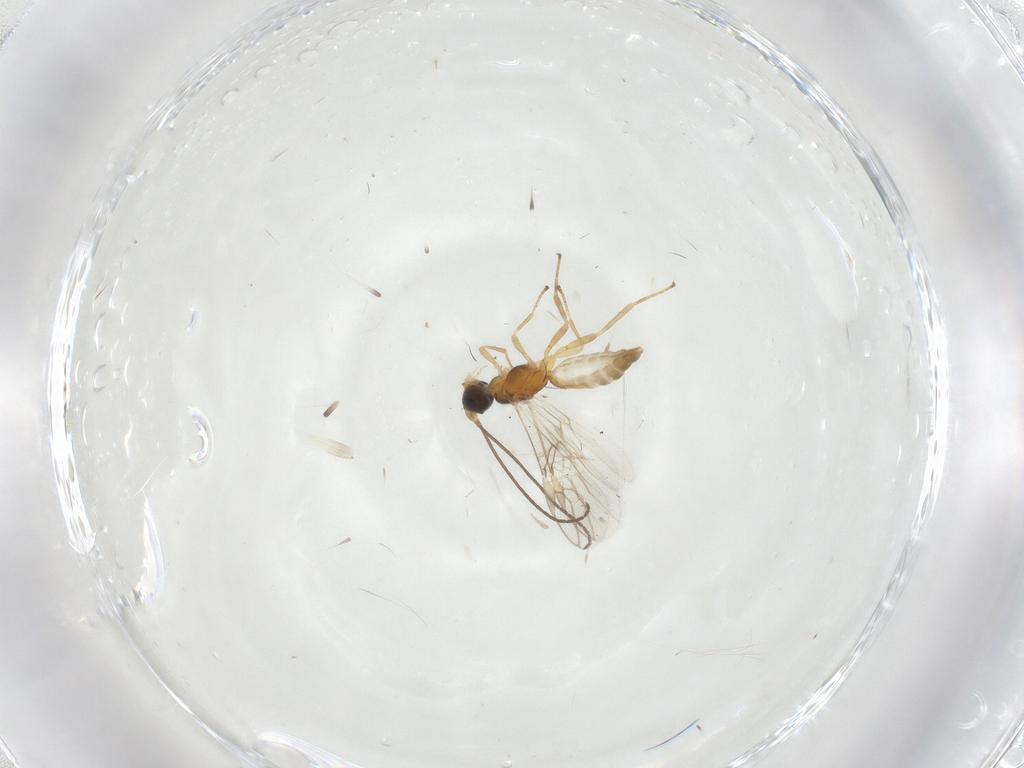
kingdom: Animalia
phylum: Arthropoda
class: Insecta
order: Hymenoptera
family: Braconidae
